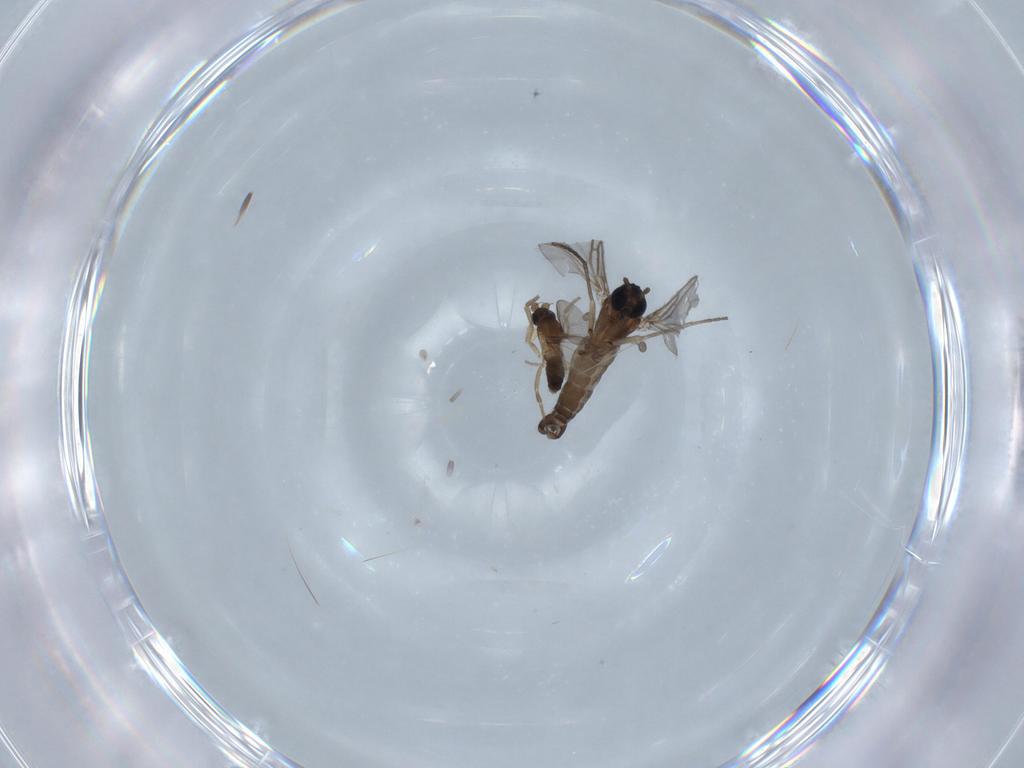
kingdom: Animalia
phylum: Arthropoda
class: Insecta
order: Diptera
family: Sciaridae
